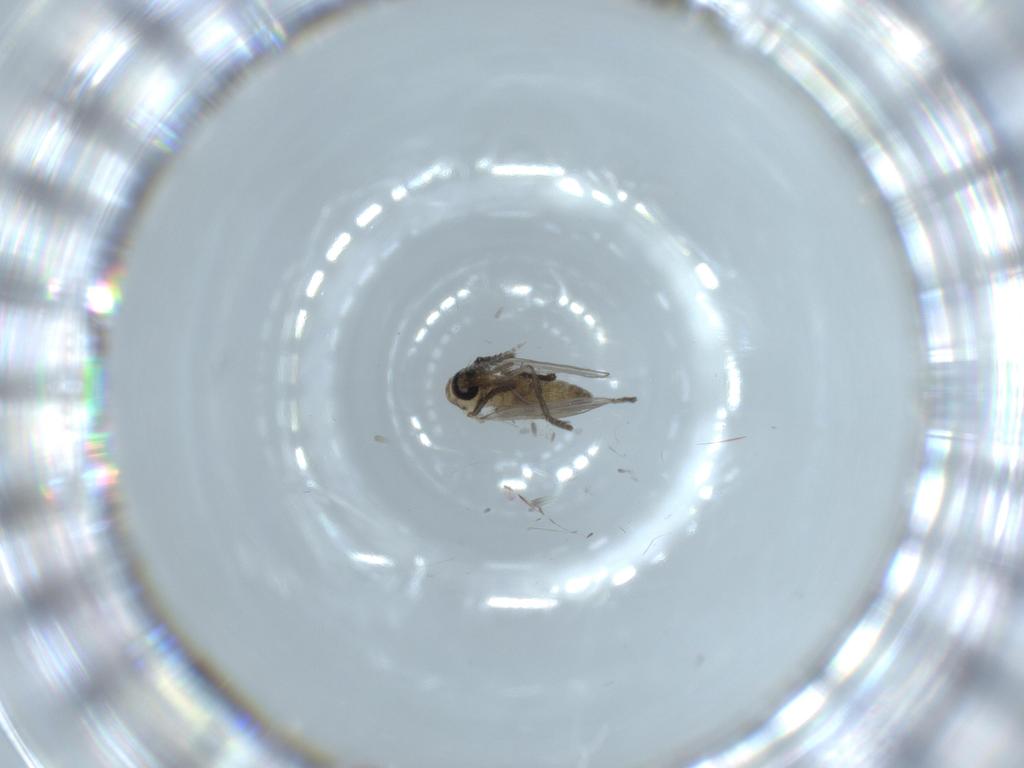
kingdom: Animalia
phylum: Arthropoda
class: Insecta
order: Diptera
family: Psychodidae
